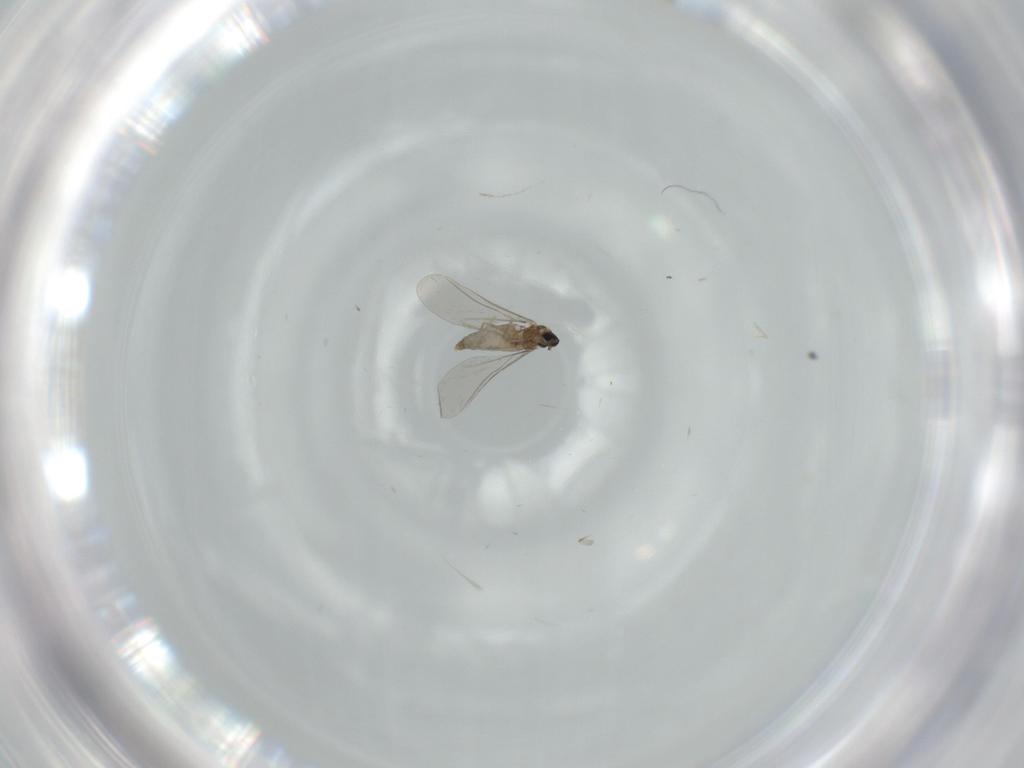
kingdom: Animalia
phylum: Arthropoda
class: Insecta
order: Diptera
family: Cecidomyiidae
